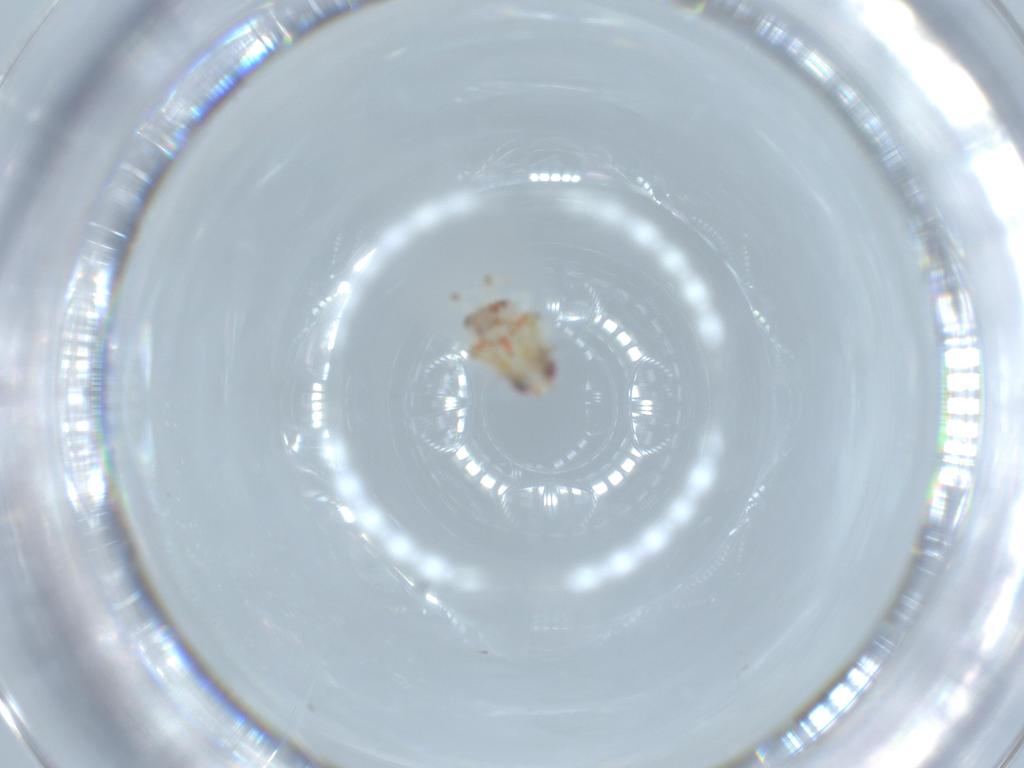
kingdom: Animalia
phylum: Arthropoda
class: Insecta
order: Hemiptera
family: Nogodinidae
